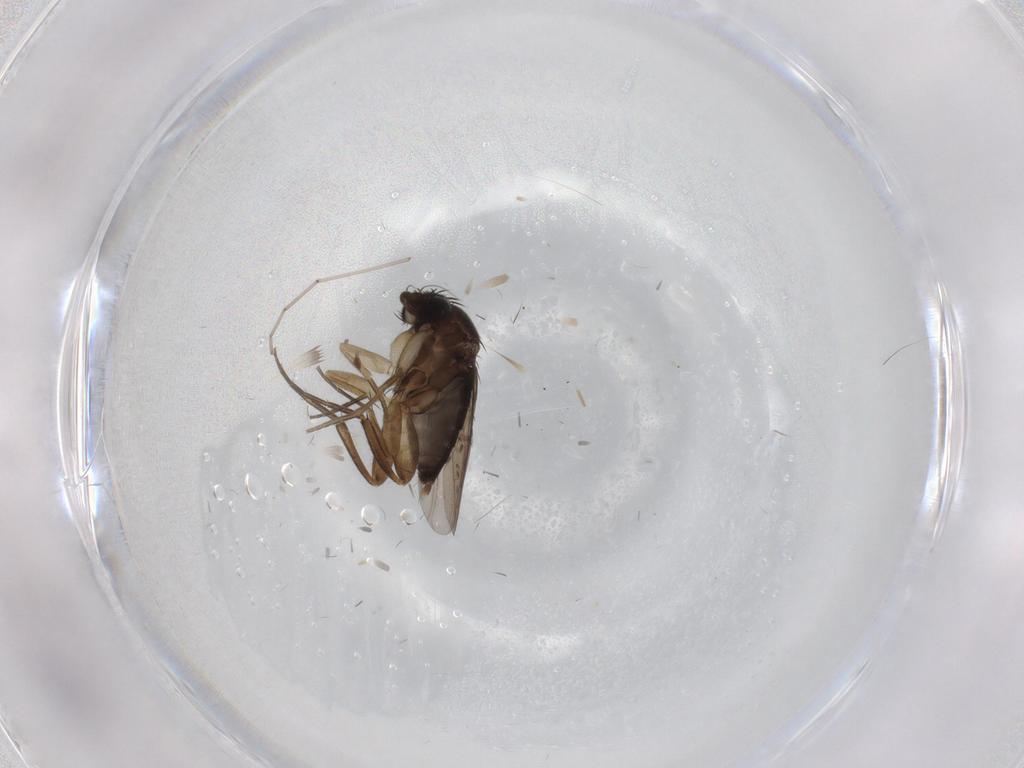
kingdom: Animalia
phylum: Arthropoda
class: Insecta
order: Diptera
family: Phoridae
